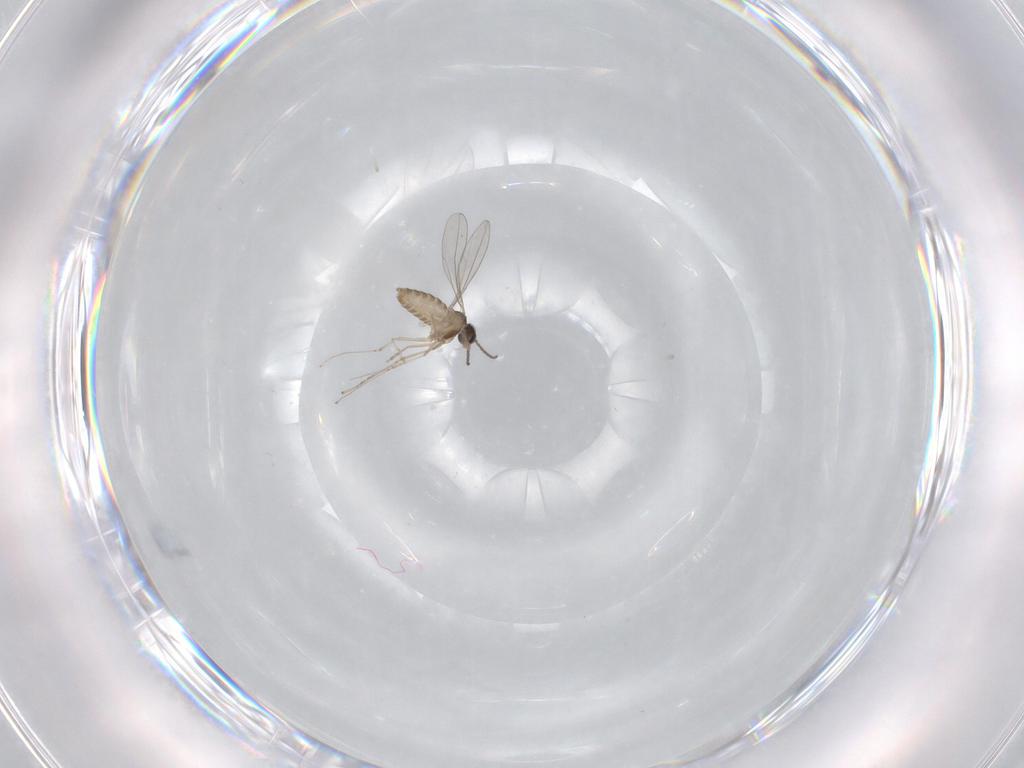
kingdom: Animalia
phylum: Arthropoda
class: Insecta
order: Diptera
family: Cecidomyiidae
